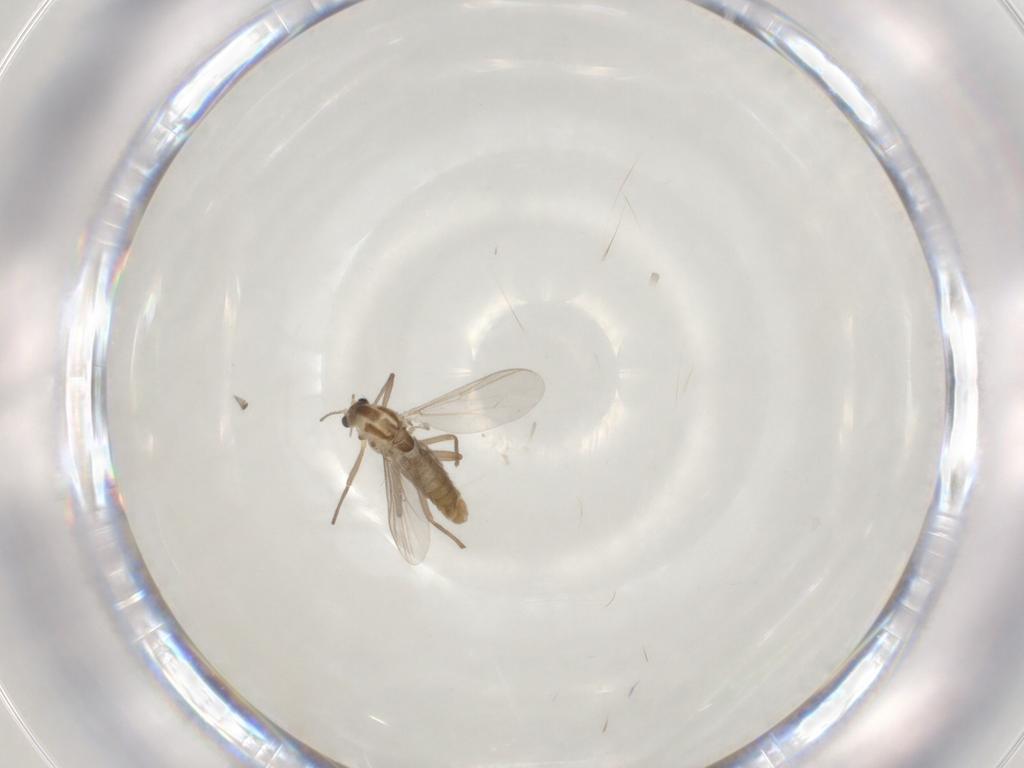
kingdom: Animalia
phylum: Arthropoda
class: Insecta
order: Diptera
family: Chironomidae
